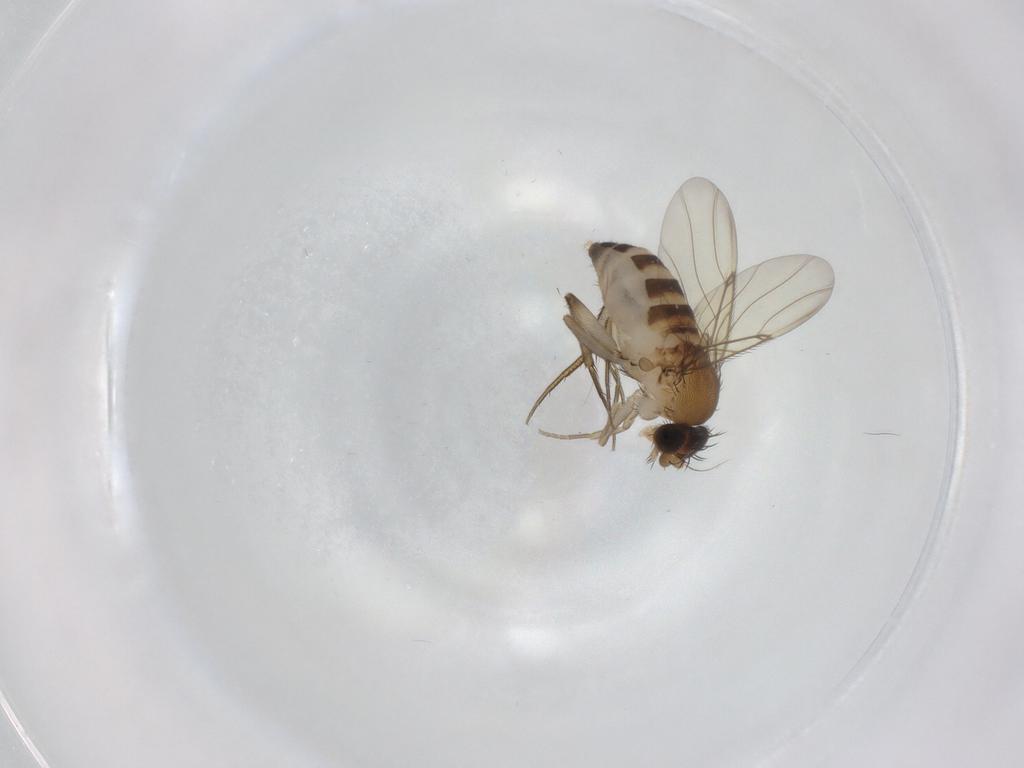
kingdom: Animalia
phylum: Arthropoda
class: Insecta
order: Diptera
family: Phoridae
